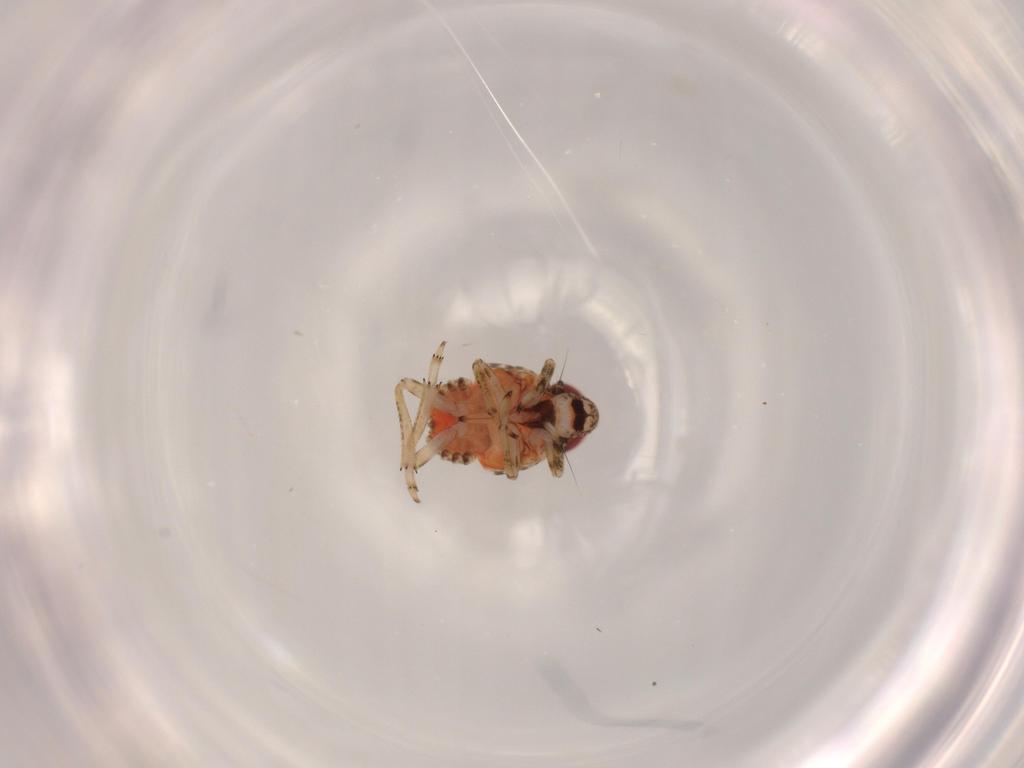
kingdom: Animalia
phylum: Arthropoda
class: Insecta
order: Hemiptera
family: Issidae
